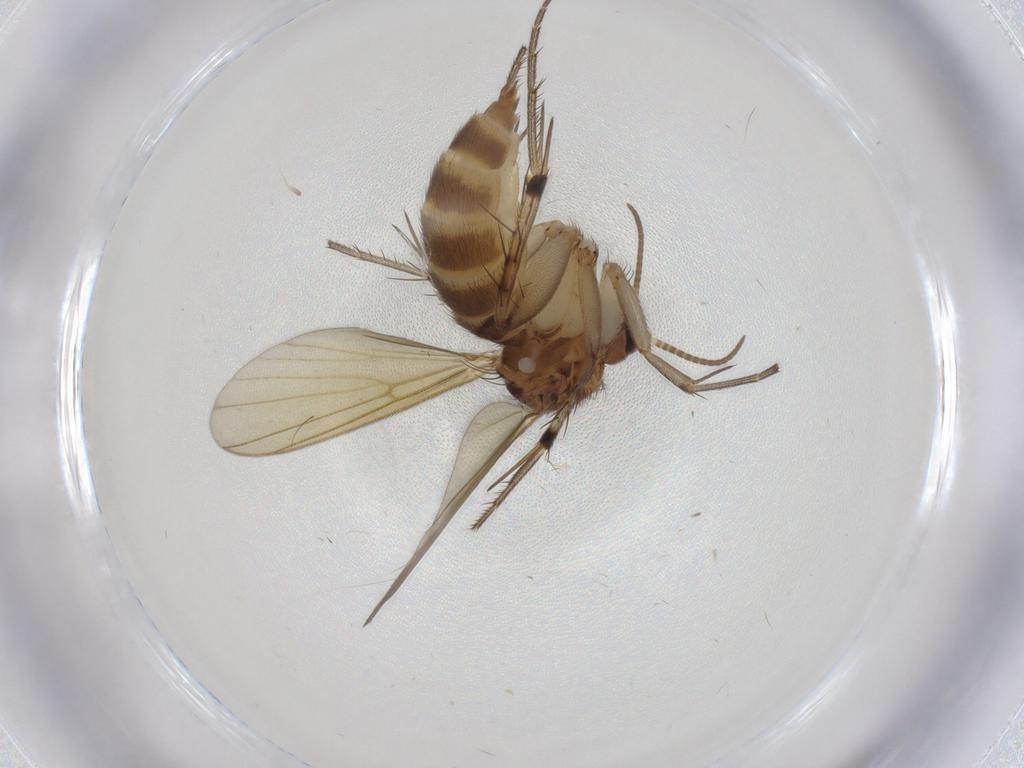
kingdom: Animalia
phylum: Arthropoda
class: Insecta
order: Diptera
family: Mycetophilidae
